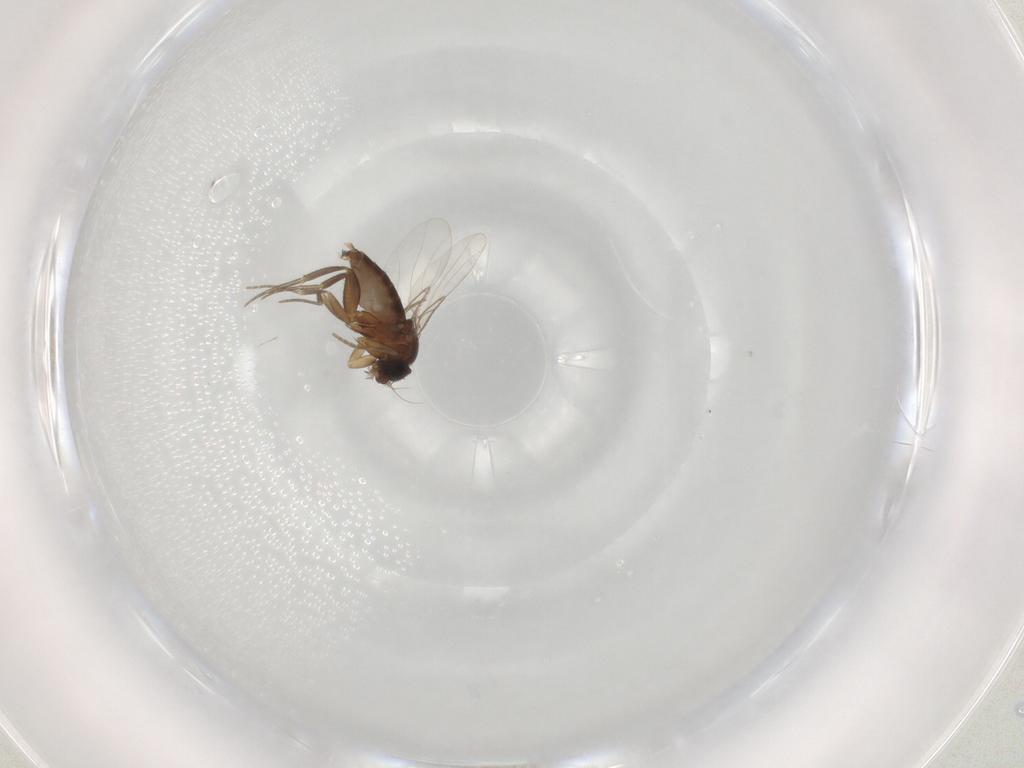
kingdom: Animalia
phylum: Arthropoda
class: Insecta
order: Diptera
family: Phoridae
